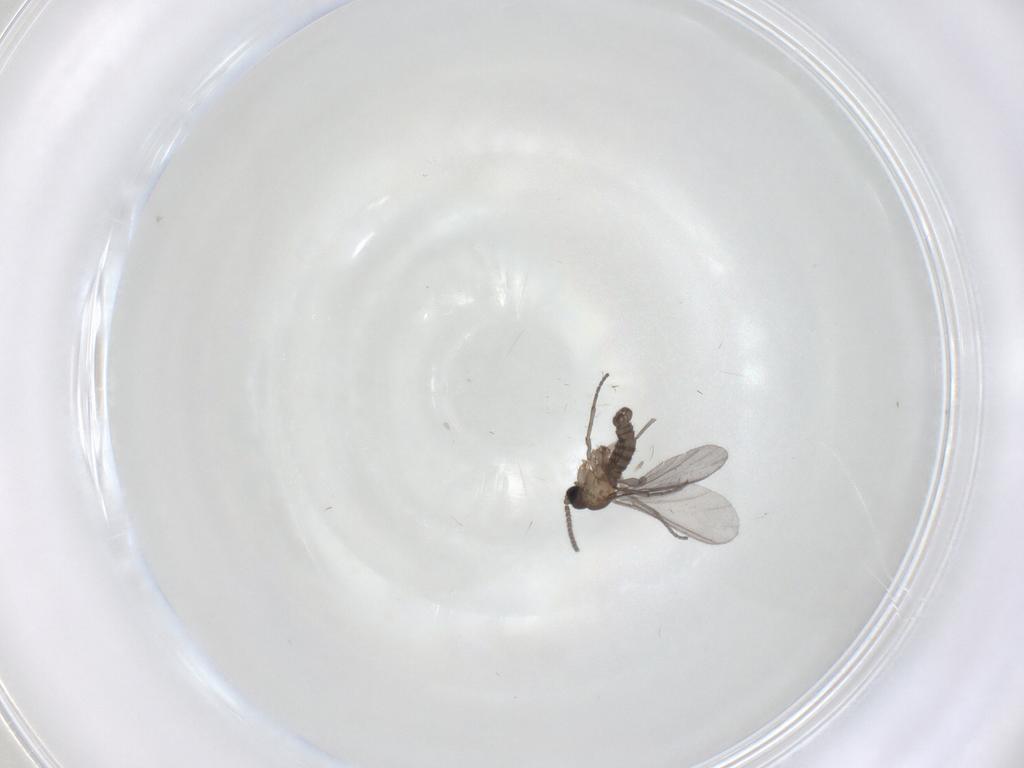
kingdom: Animalia
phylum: Arthropoda
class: Insecta
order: Diptera
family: Sciaridae
